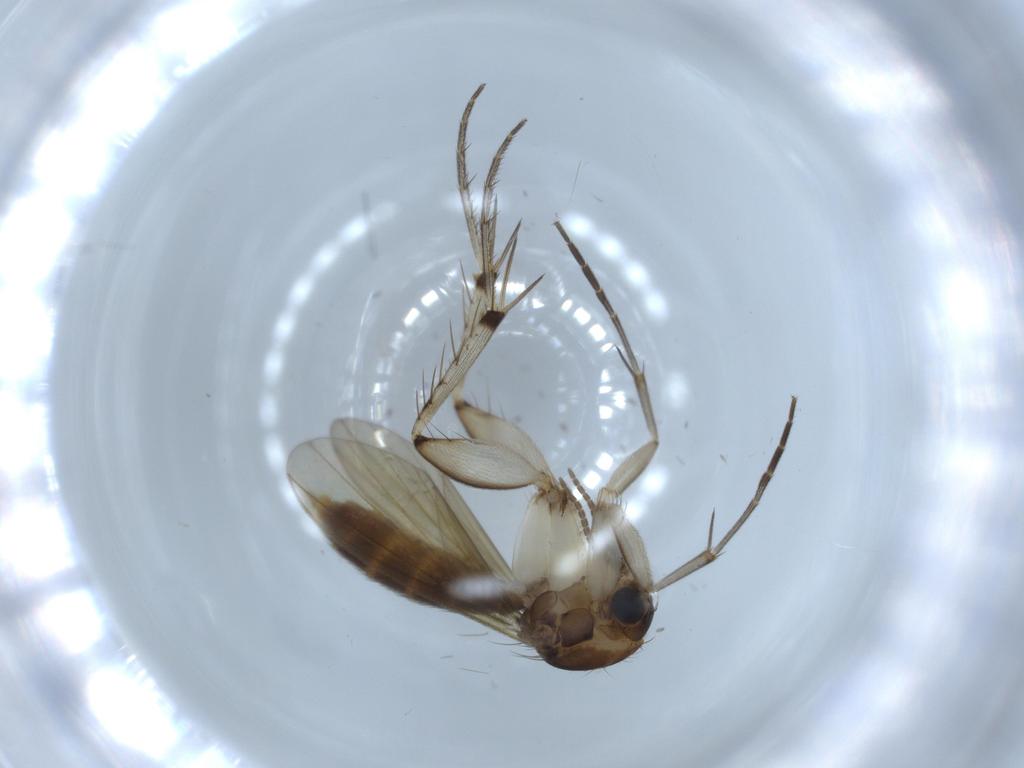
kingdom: Animalia
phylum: Arthropoda
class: Insecta
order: Diptera
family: Mycetophilidae
